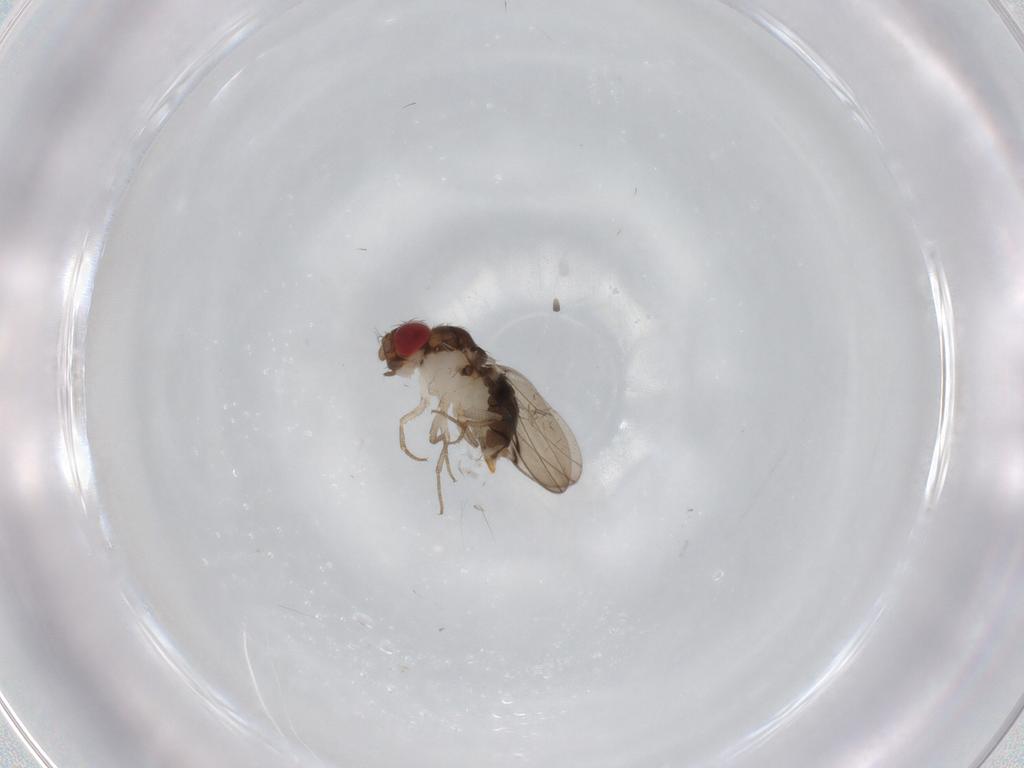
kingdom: Animalia
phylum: Arthropoda
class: Insecta
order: Diptera
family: Drosophilidae
